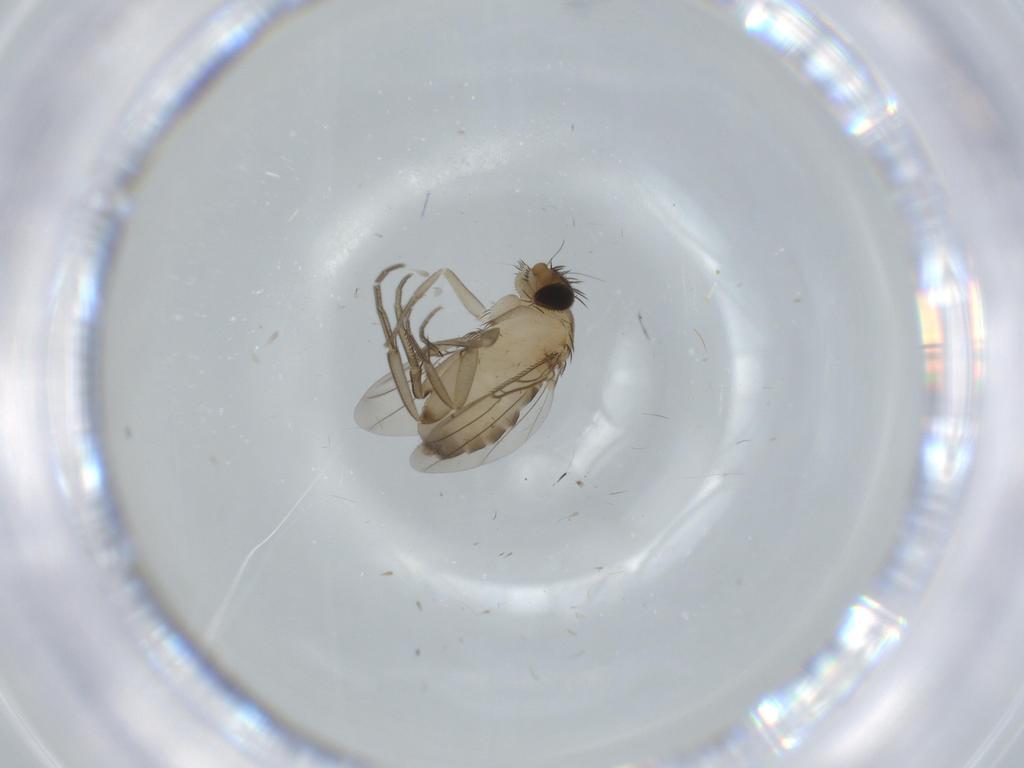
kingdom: Animalia
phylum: Arthropoda
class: Insecta
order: Diptera
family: Phoridae
